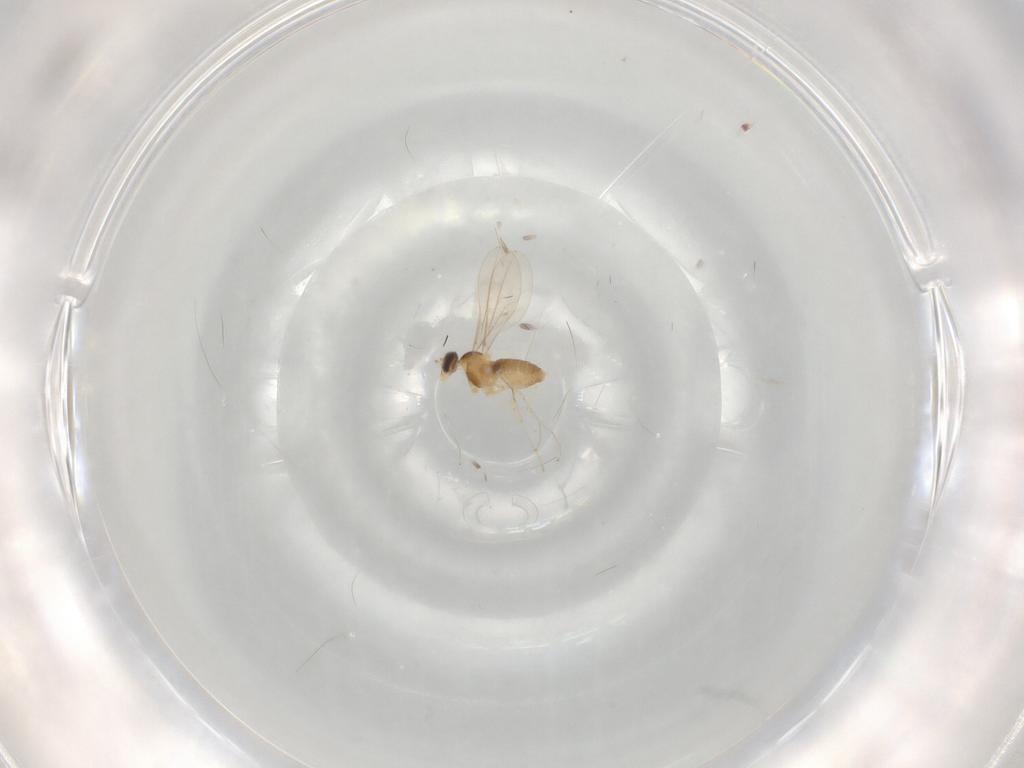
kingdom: Animalia
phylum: Arthropoda
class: Insecta
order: Diptera
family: Cecidomyiidae
